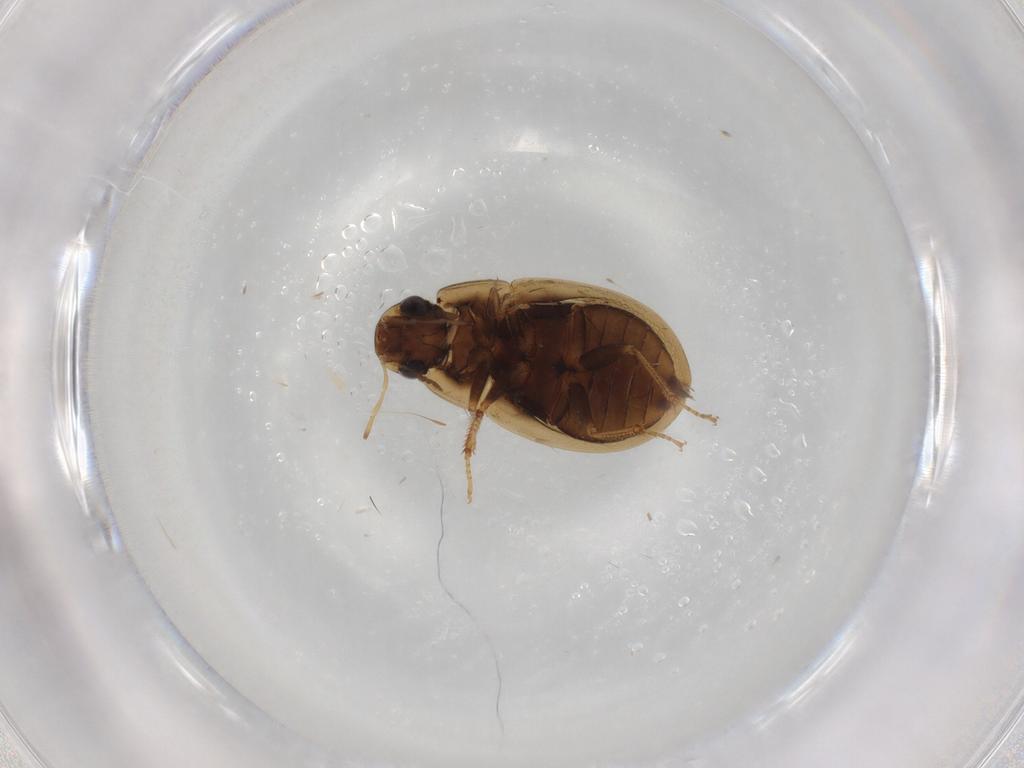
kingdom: Animalia
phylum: Arthropoda
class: Insecta
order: Coleoptera
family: Hydrophilidae
